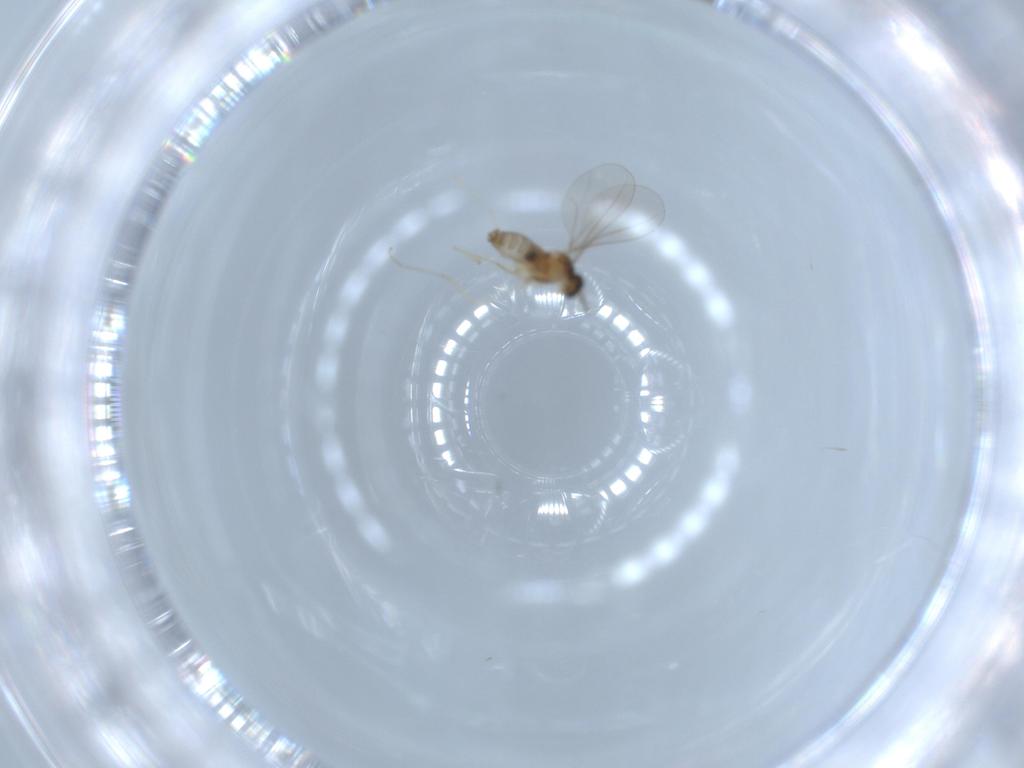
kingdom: Animalia
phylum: Arthropoda
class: Insecta
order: Diptera
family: Cecidomyiidae
